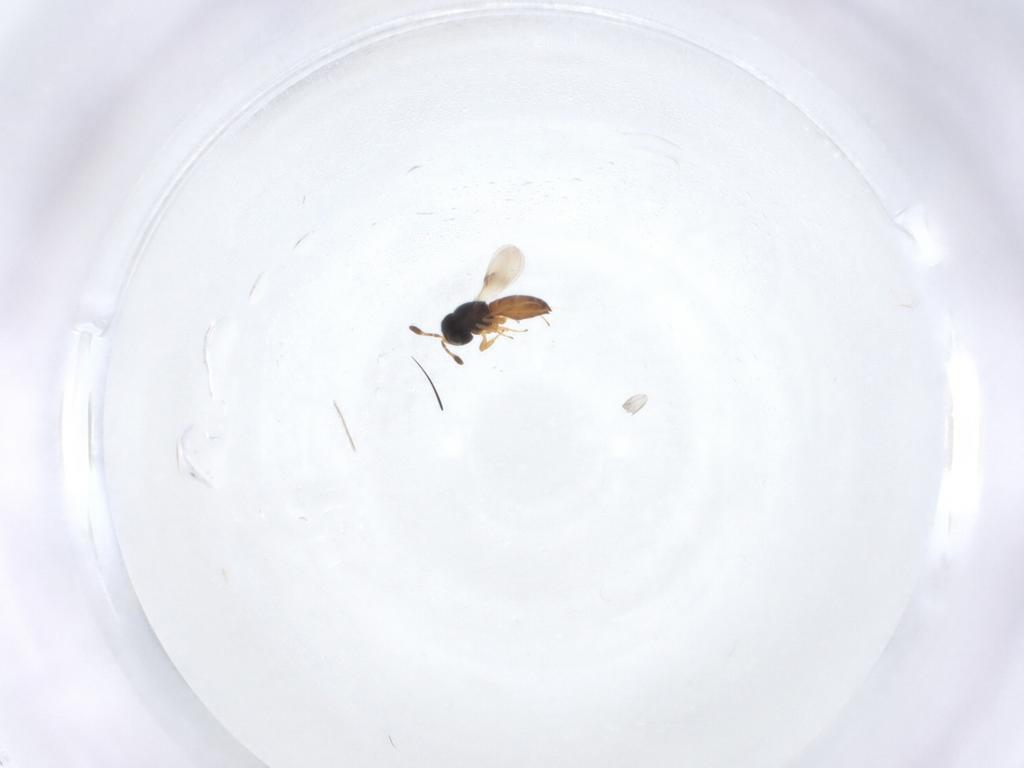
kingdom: Animalia
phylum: Arthropoda
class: Insecta
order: Hymenoptera
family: Scelionidae
